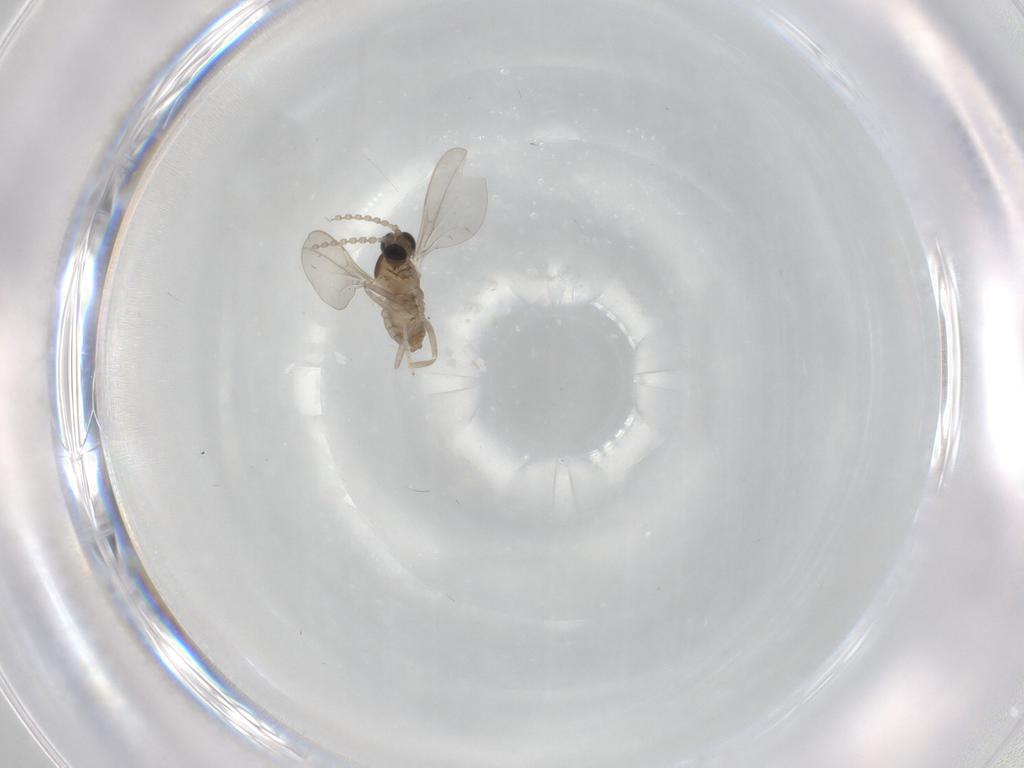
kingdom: Animalia
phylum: Arthropoda
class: Insecta
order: Diptera
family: Cecidomyiidae
